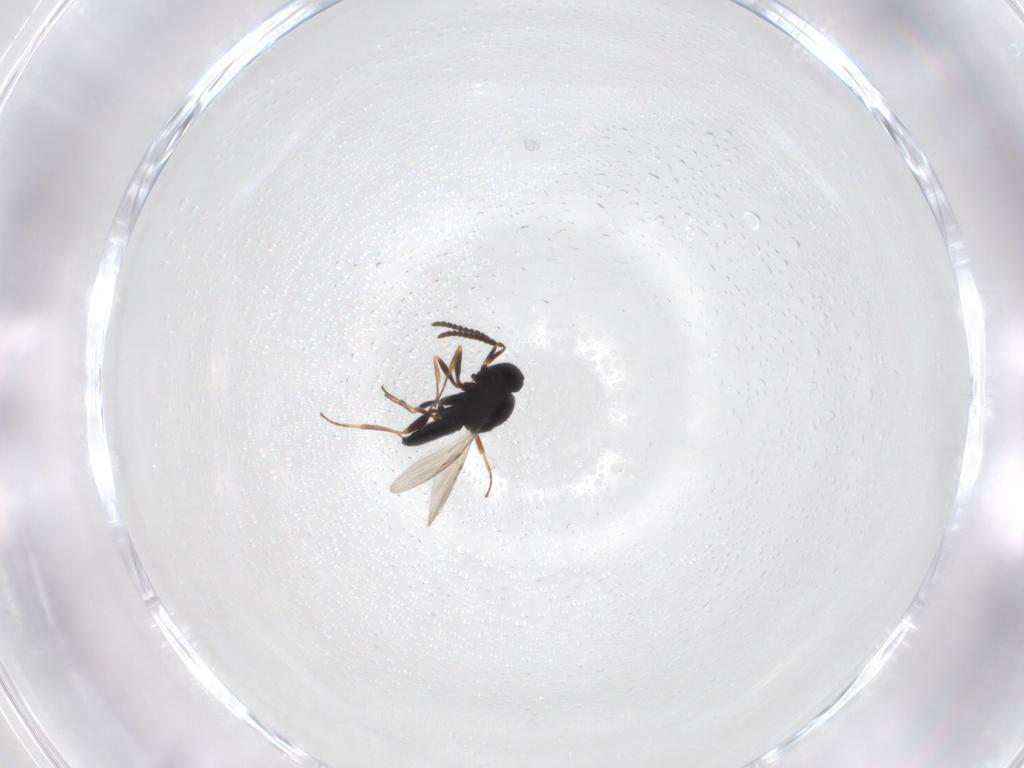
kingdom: Animalia
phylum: Arthropoda
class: Insecta
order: Hymenoptera
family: Scelionidae
